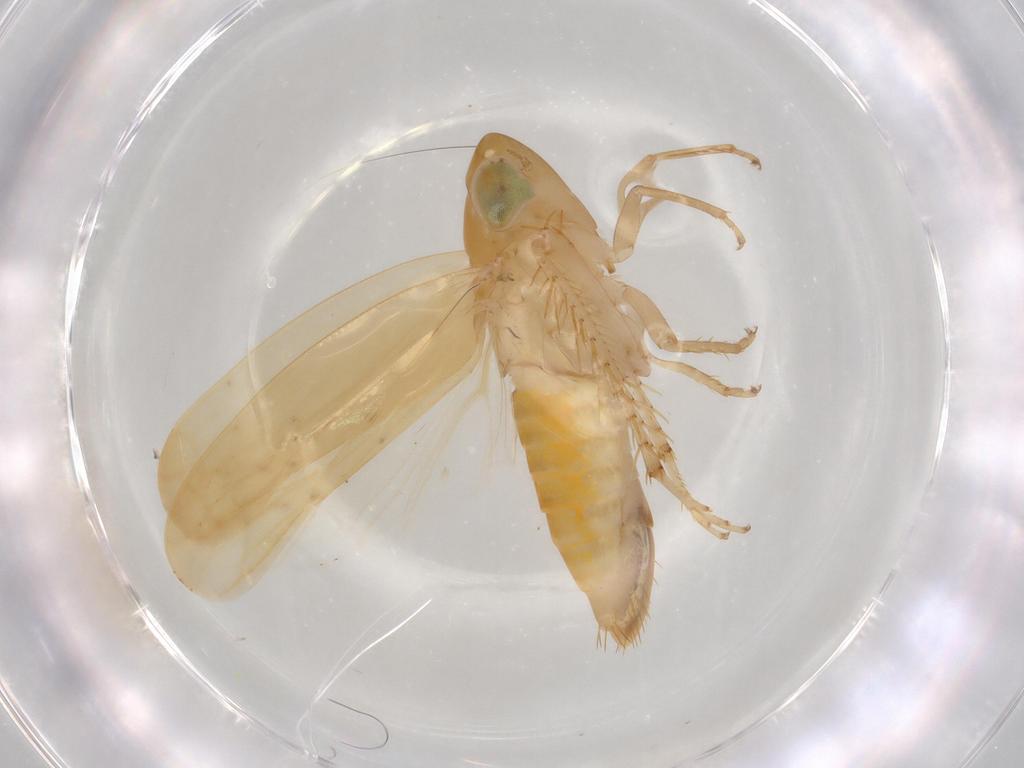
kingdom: Animalia
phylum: Arthropoda
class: Insecta
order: Hemiptera
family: Cicadellidae
